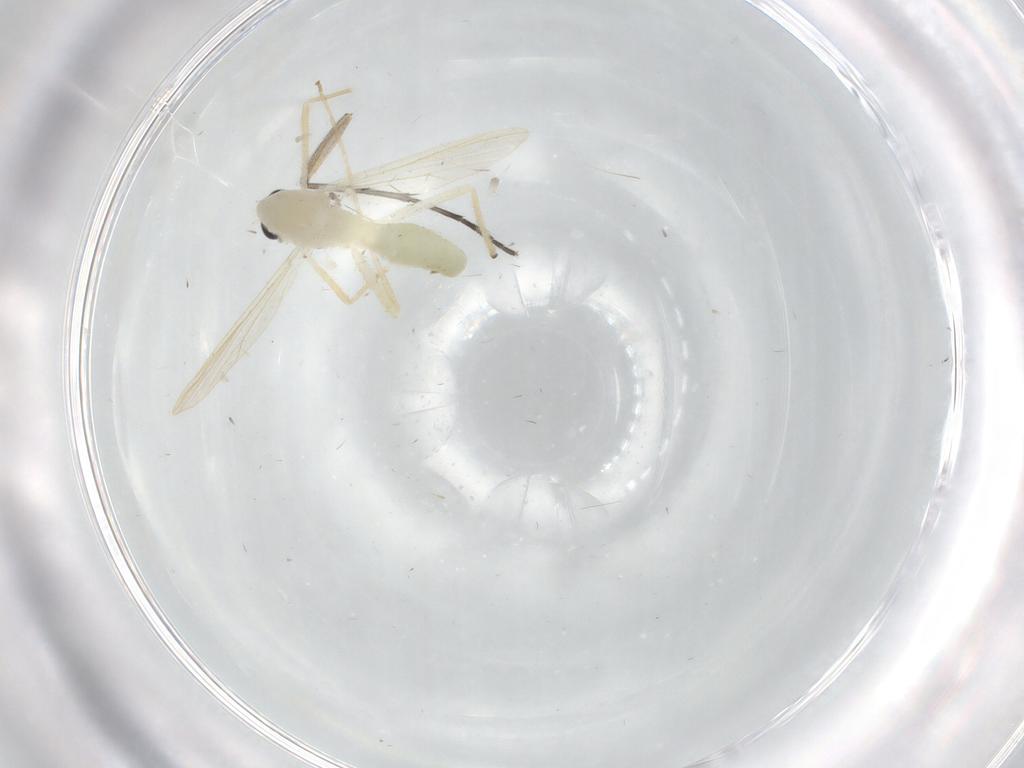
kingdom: Animalia
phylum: Arthropoda
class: Insecta
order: Diptera
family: Chironomidae
